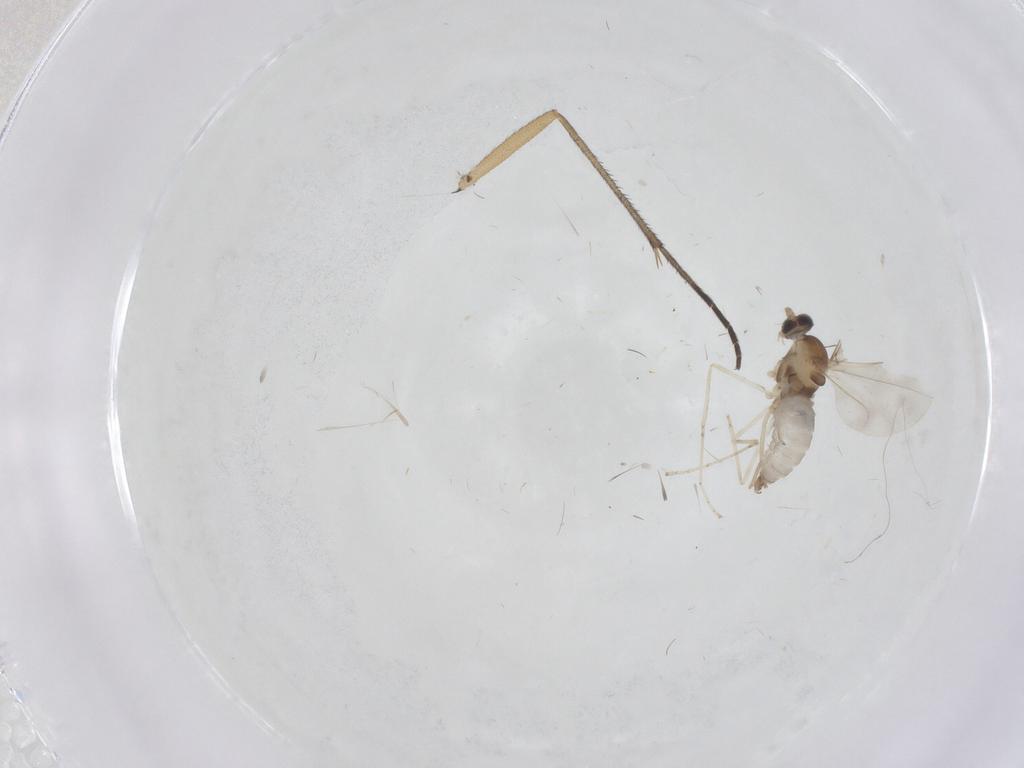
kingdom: Animalia
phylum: Arthropoda
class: Insecta
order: Diptera
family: Cecidomyiidae
